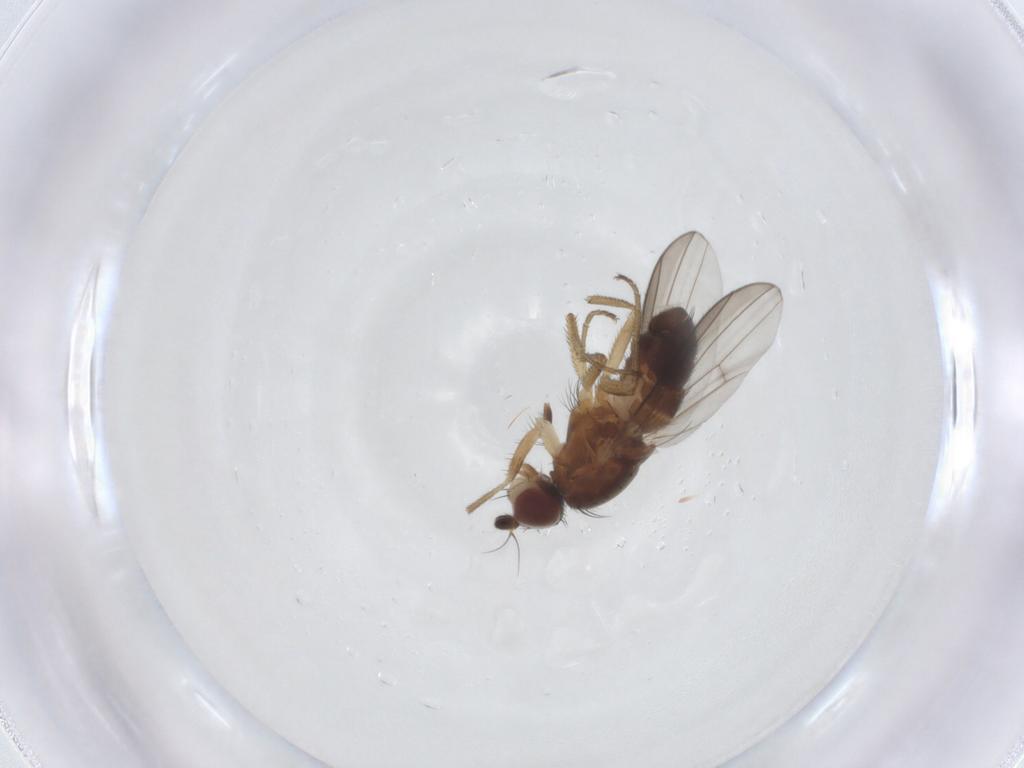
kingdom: Animalia
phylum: Arthropoda
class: Insecta
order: Diptera
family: Heleomyzidae
